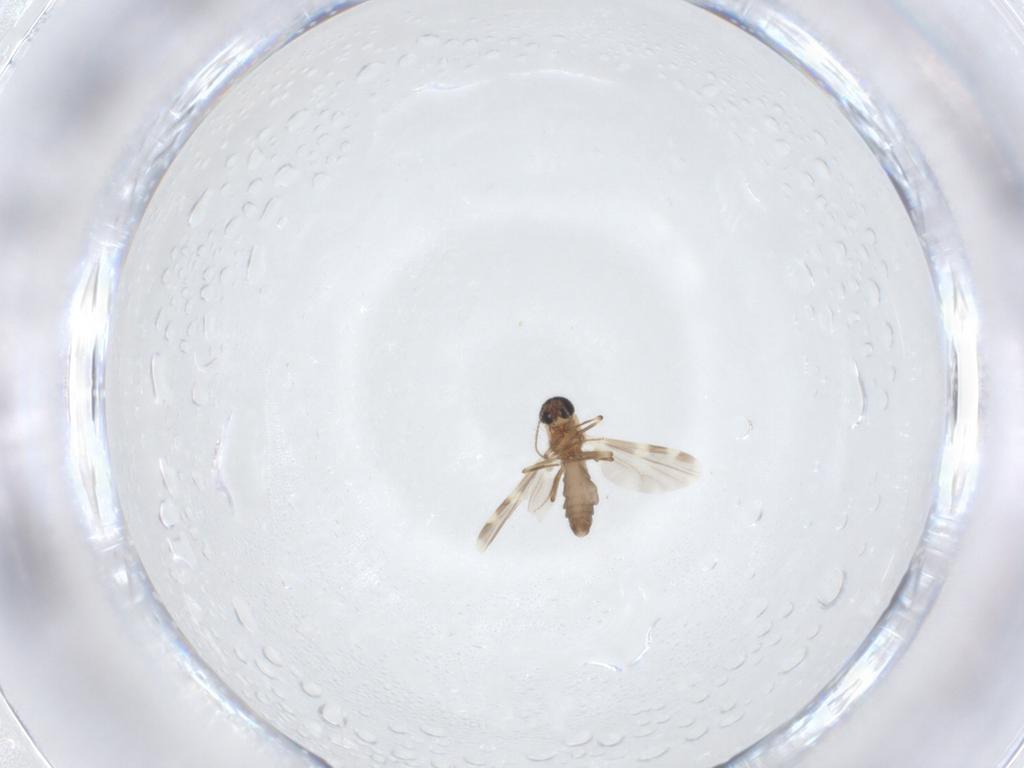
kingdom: Animalia
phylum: Arthropoda
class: Insecta
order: Diptera
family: Ceratopogonidae
